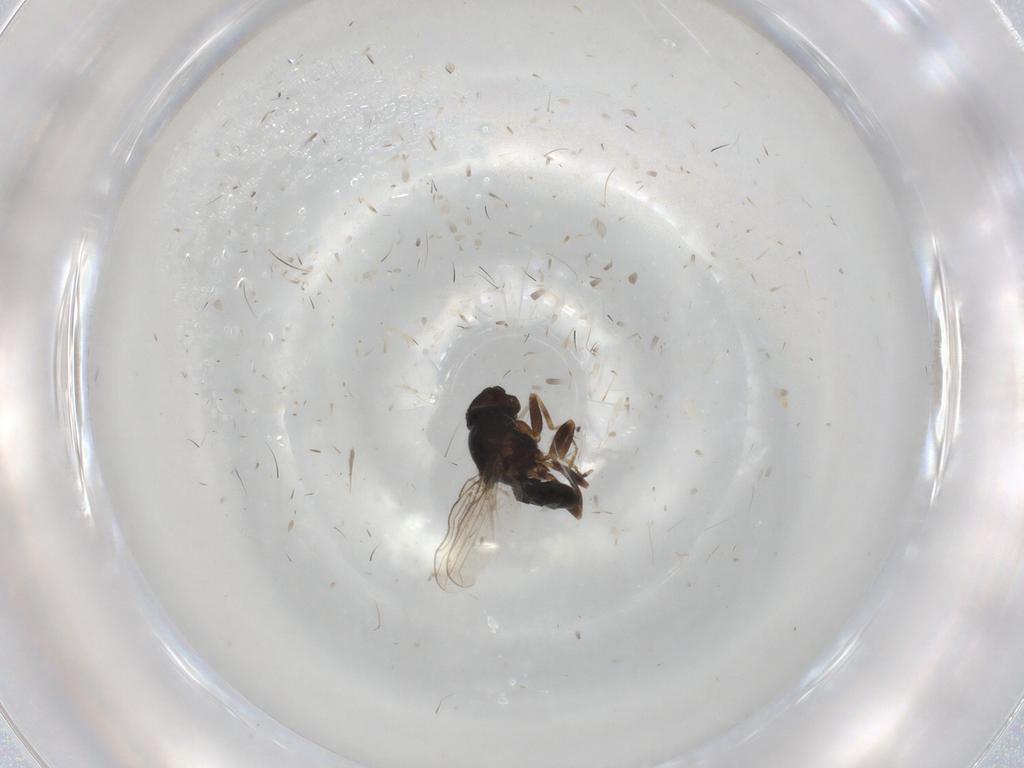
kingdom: Animalia
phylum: Arthropoda
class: Insecta
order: Diptera
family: Chloropidae
